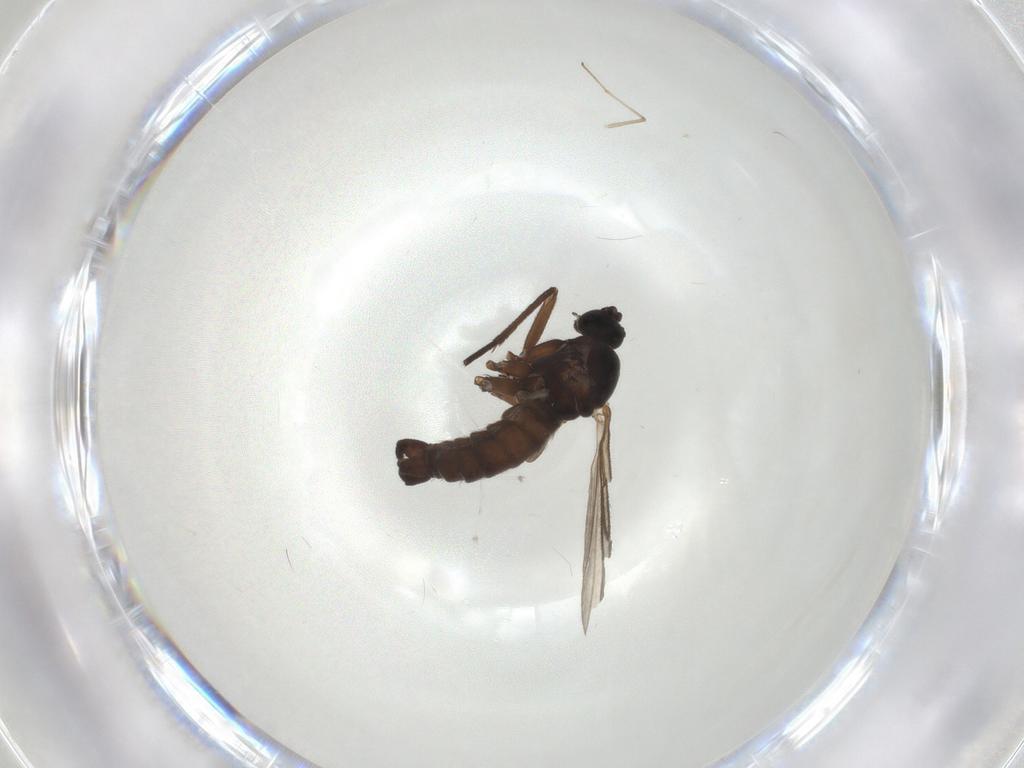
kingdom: Animalia
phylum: Arthropoda
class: Insecta
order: Diptera
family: Sciaridae
